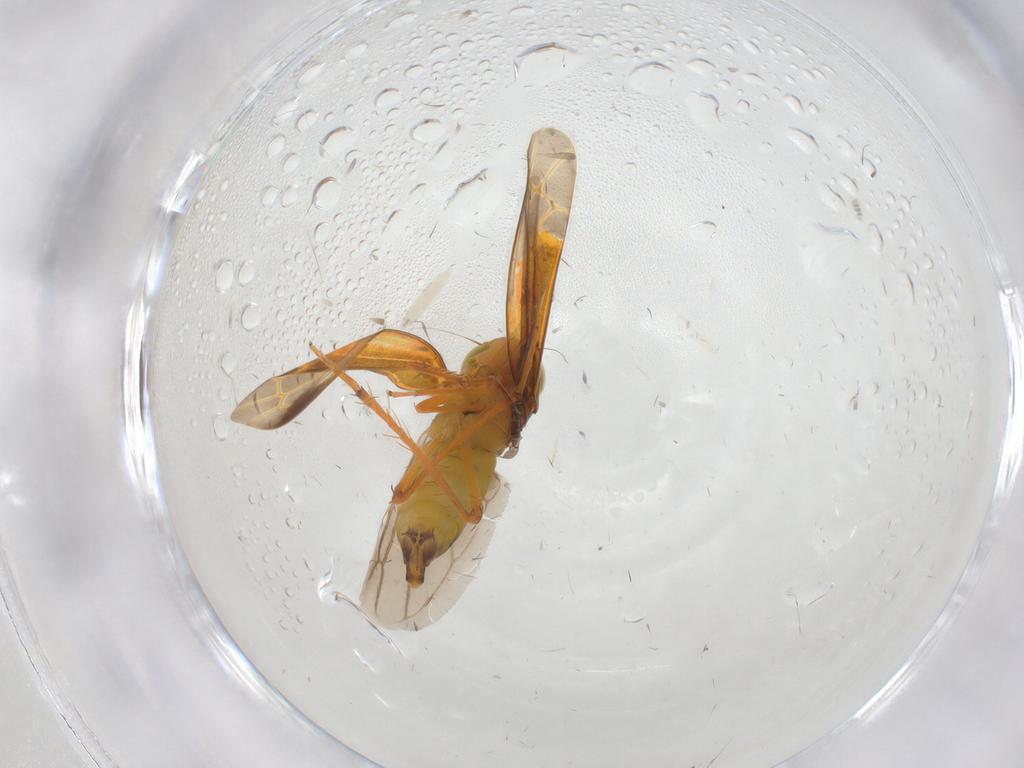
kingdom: Animalia
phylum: Arthropoda
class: Insecta
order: Hemiptera
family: Cicadellidae
